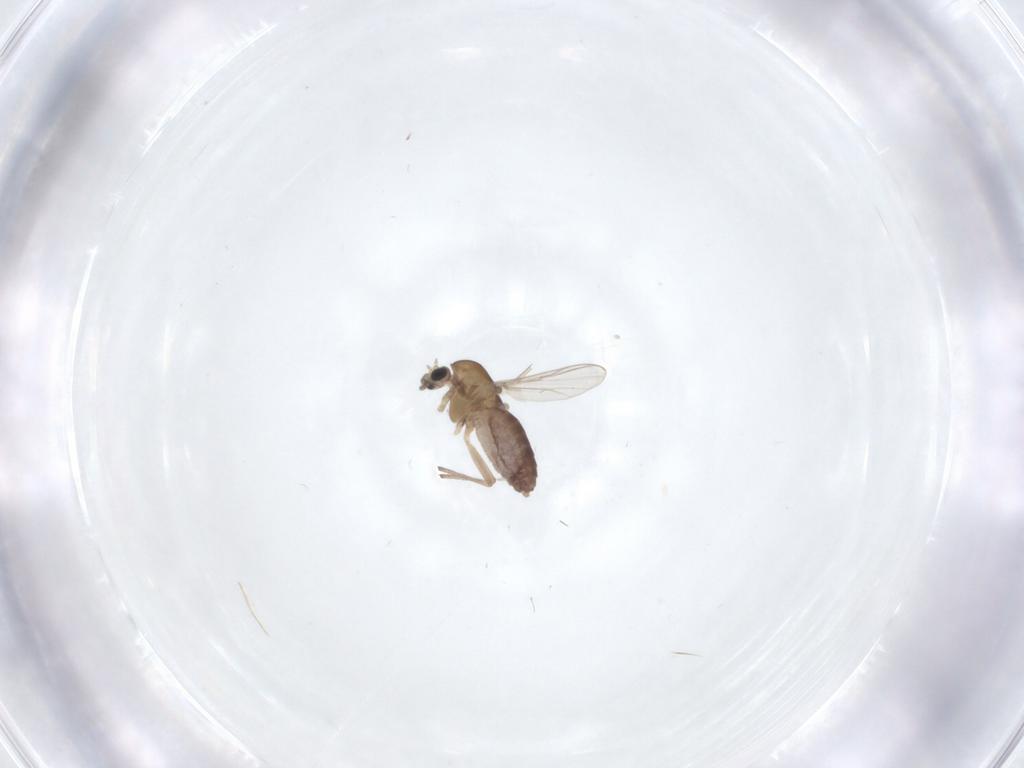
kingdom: Animalia
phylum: Arthropoda
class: Insecta
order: Diptera
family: Chironomidae
